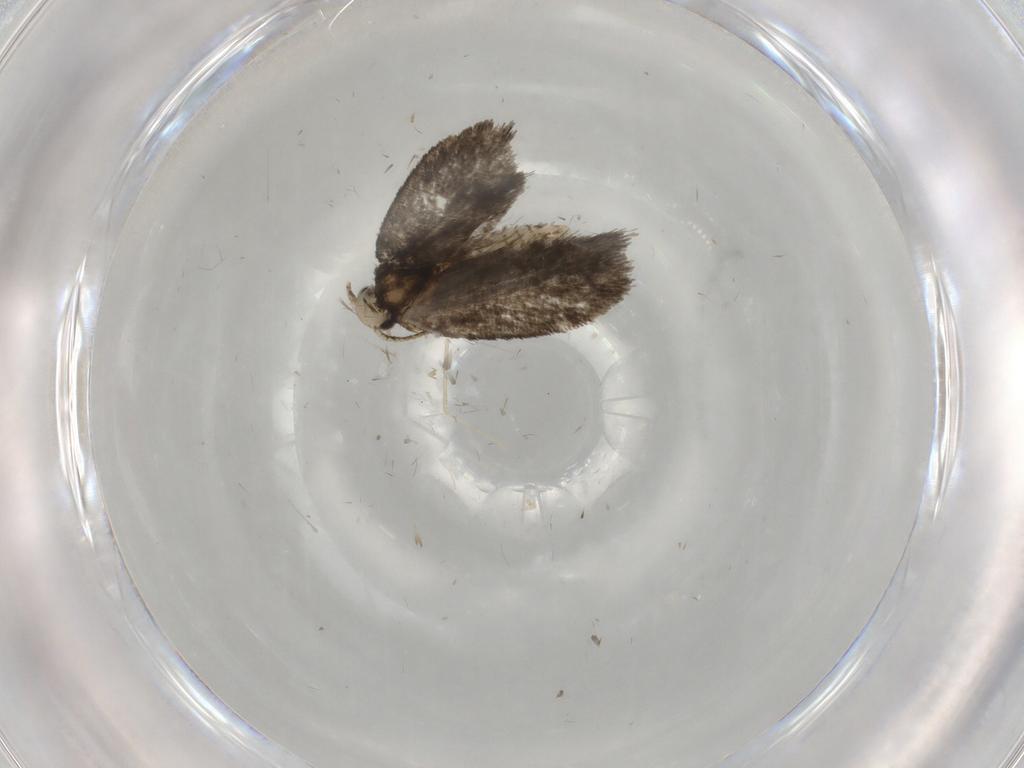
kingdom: Animalia
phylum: Arthropoda
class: Insecta
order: Lepidoptera
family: Psychidae
